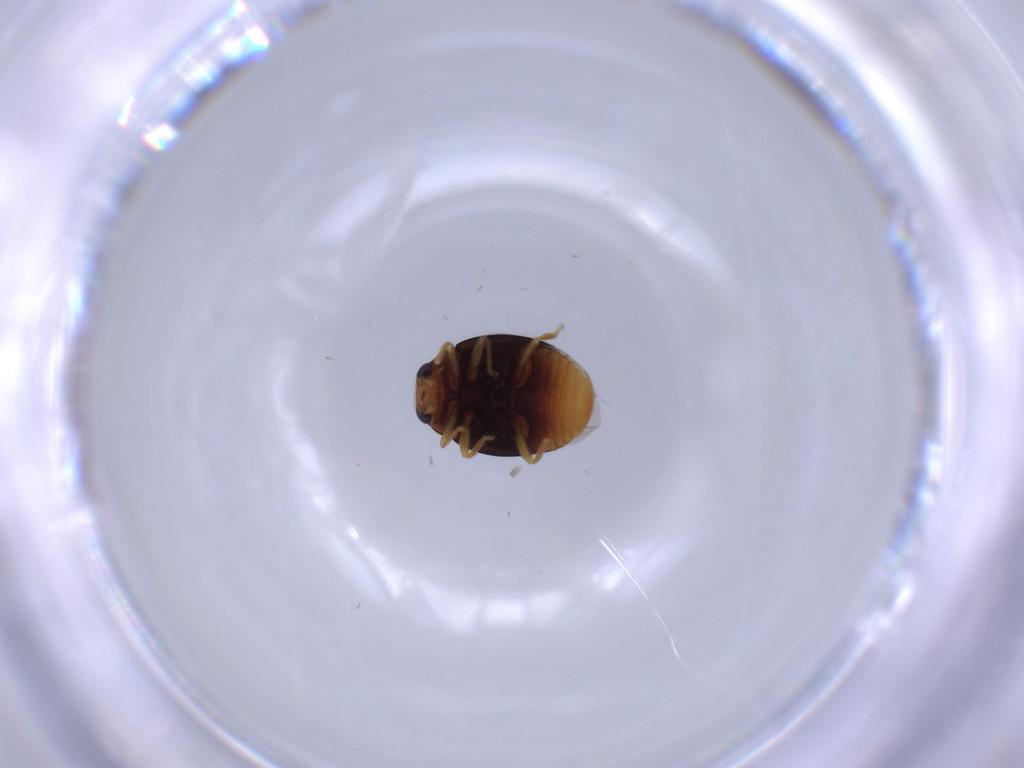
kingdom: Animalia
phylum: Arthropoda
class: Insecta
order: Coleoptera
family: Coccinellidae
